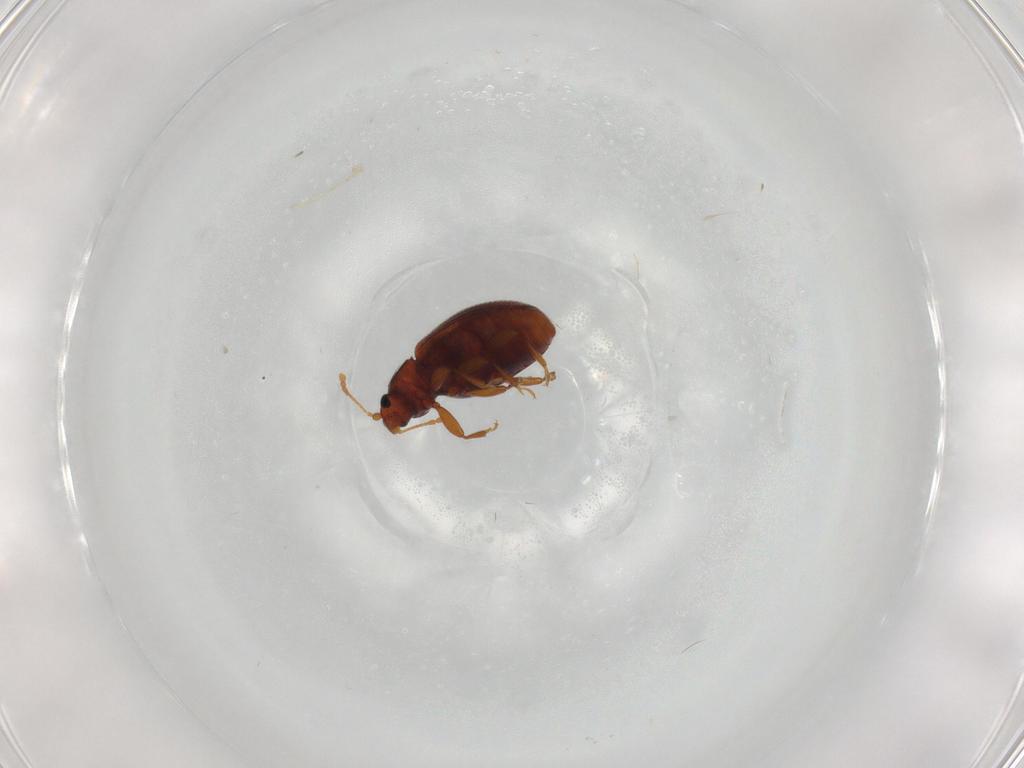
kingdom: Animalia
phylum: Arthropoda
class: Insecta
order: Coleoptera
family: Latridiidae
